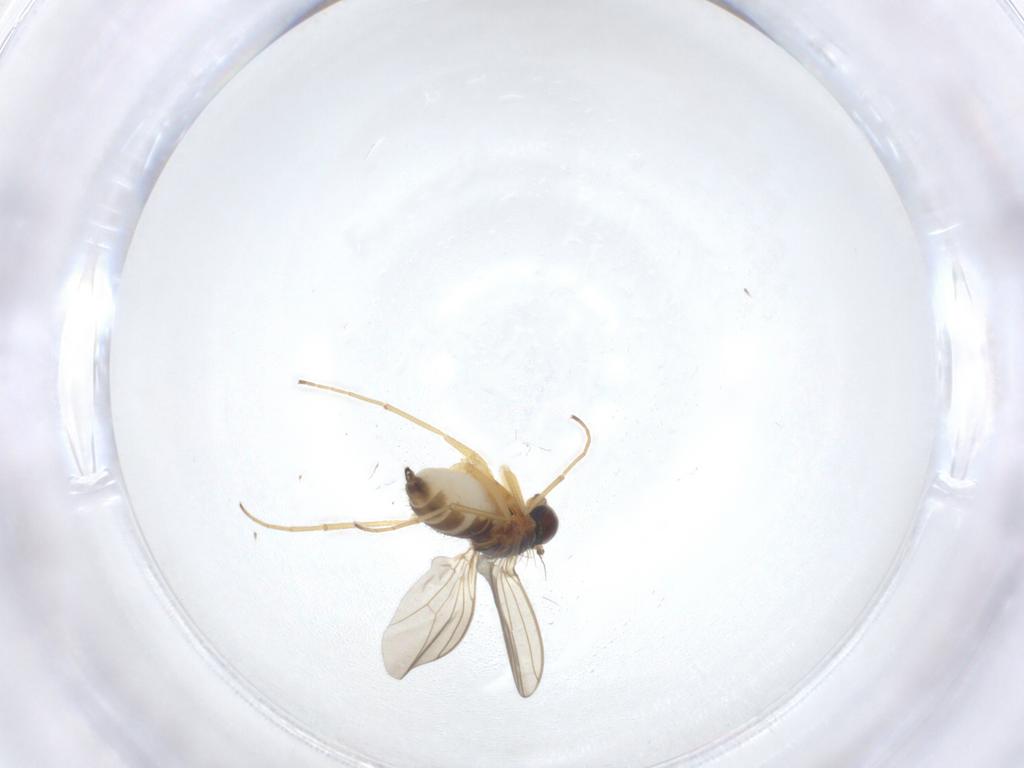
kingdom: Animalia
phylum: Arthropoda
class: Insecta
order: Diptera
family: Dolichopodidae
